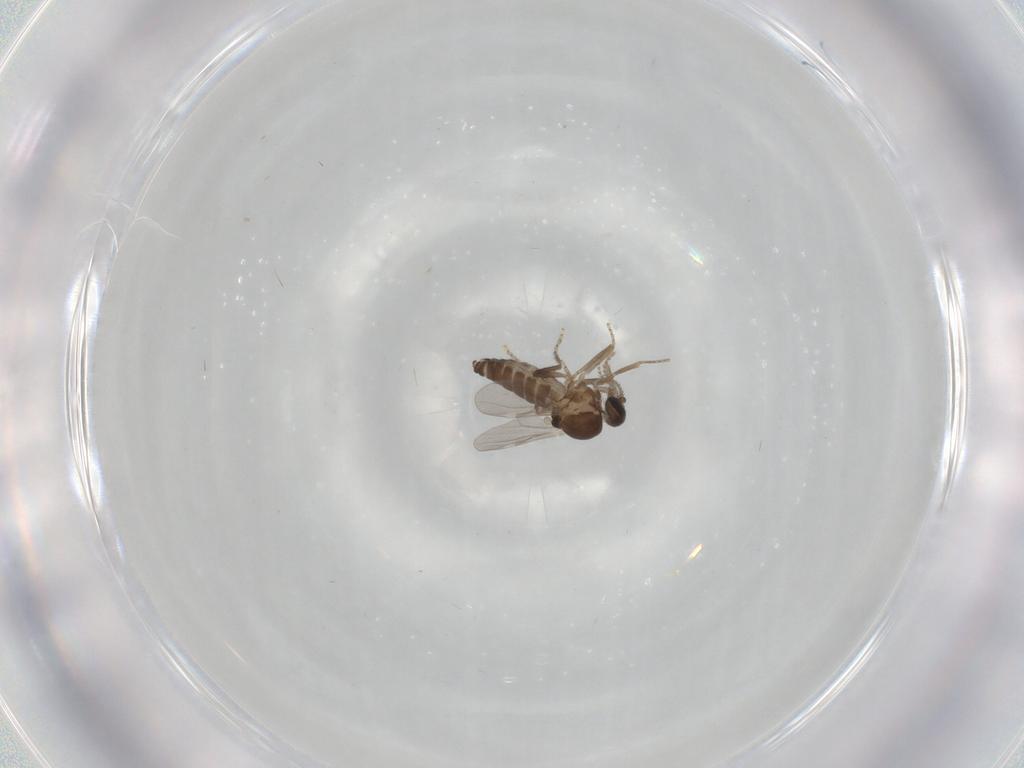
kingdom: Animalia
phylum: Arthropoda
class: Insecta
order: Diptera
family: Ceratopogonidae
